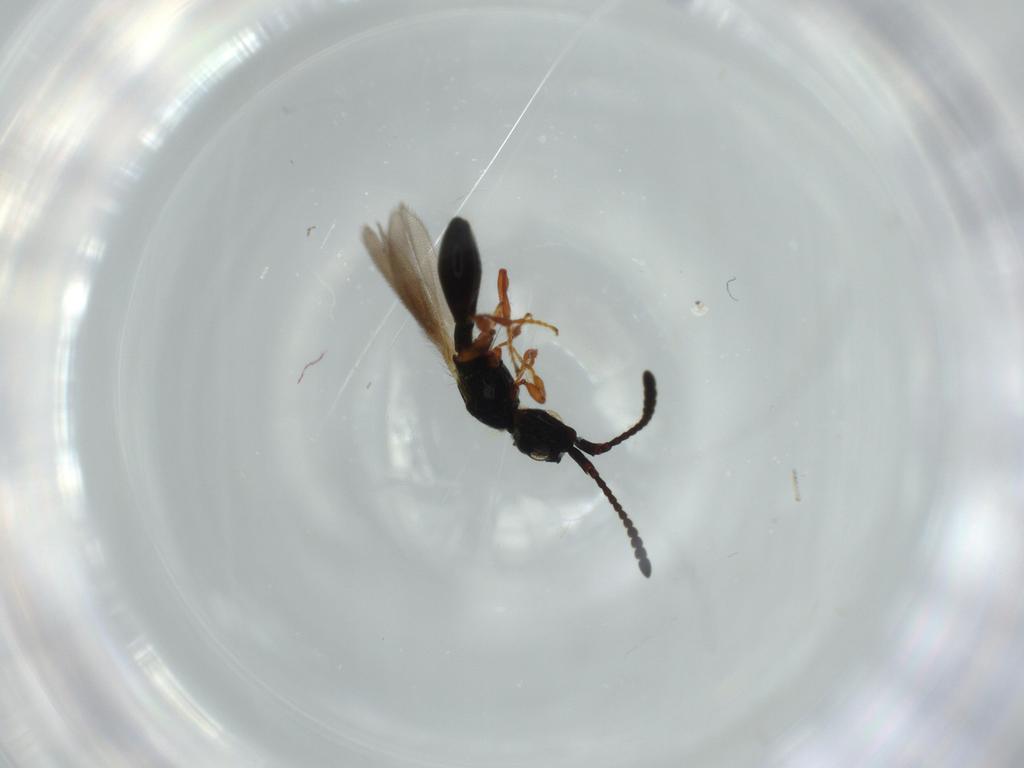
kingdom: Animalia
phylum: Arthropoda
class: Insecta
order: Hymenoptera
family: Diapriidae
